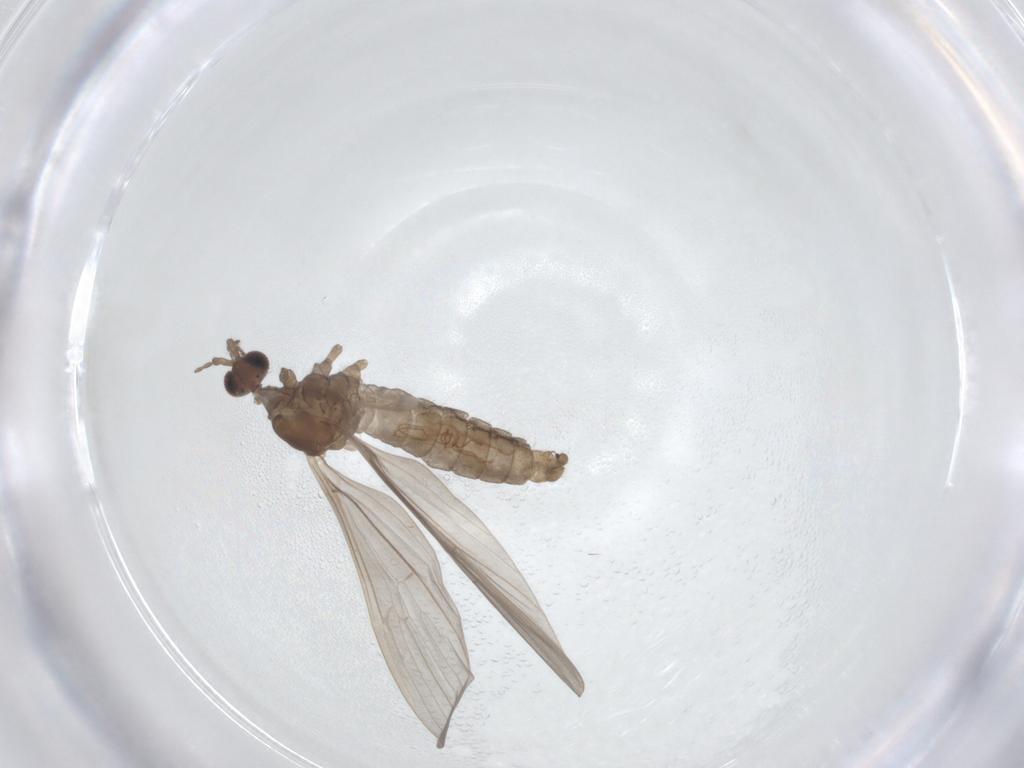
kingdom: Animalia
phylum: Arthropoda
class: Insecta
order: Diptera
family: Limoniidae
